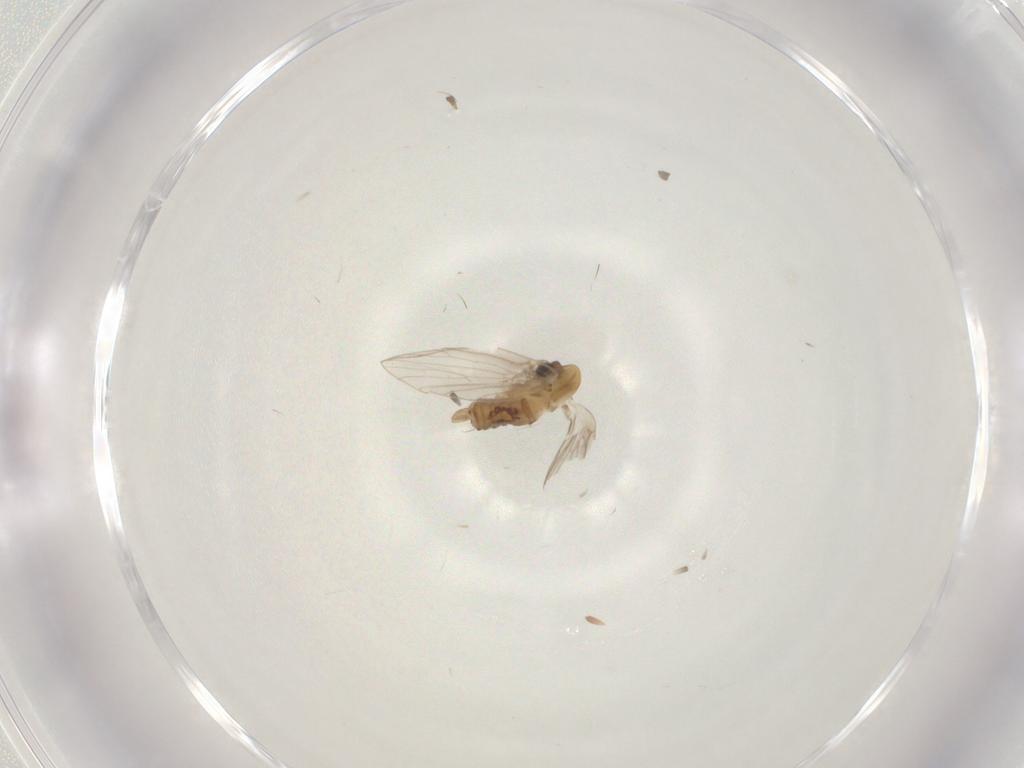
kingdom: Animalia
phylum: Arthropoda
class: Insecta
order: Diptera
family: Psychodidae
